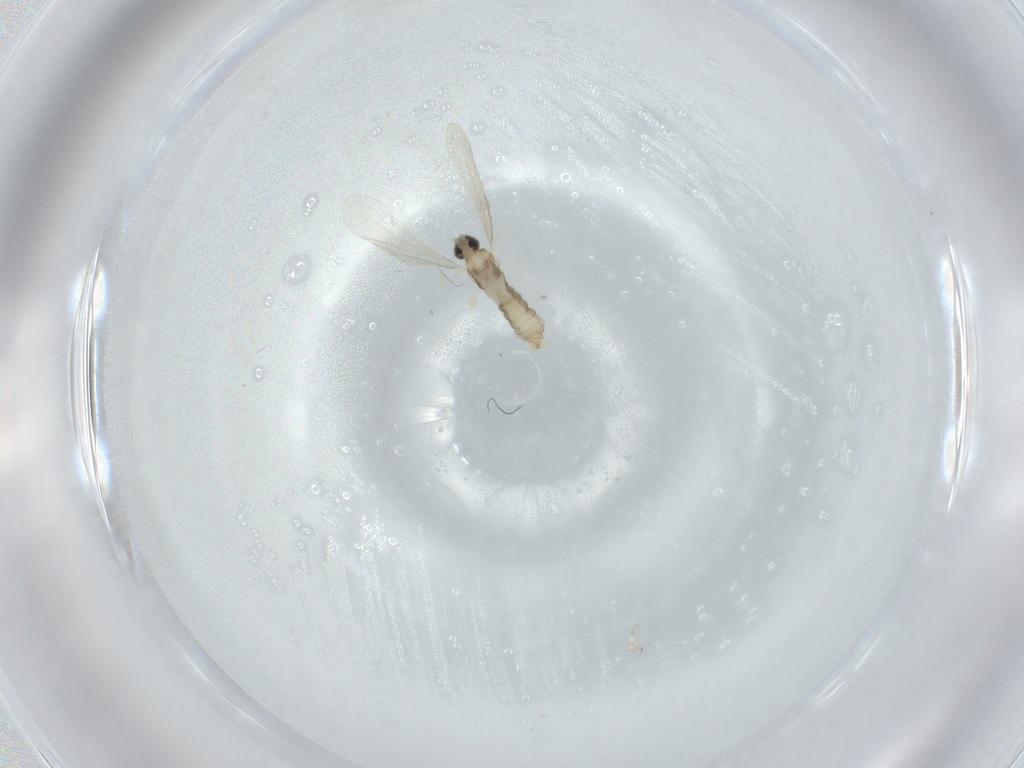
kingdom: Animalia
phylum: Arthropoda
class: Insecta
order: Diptera
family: Cecidomyiidae
